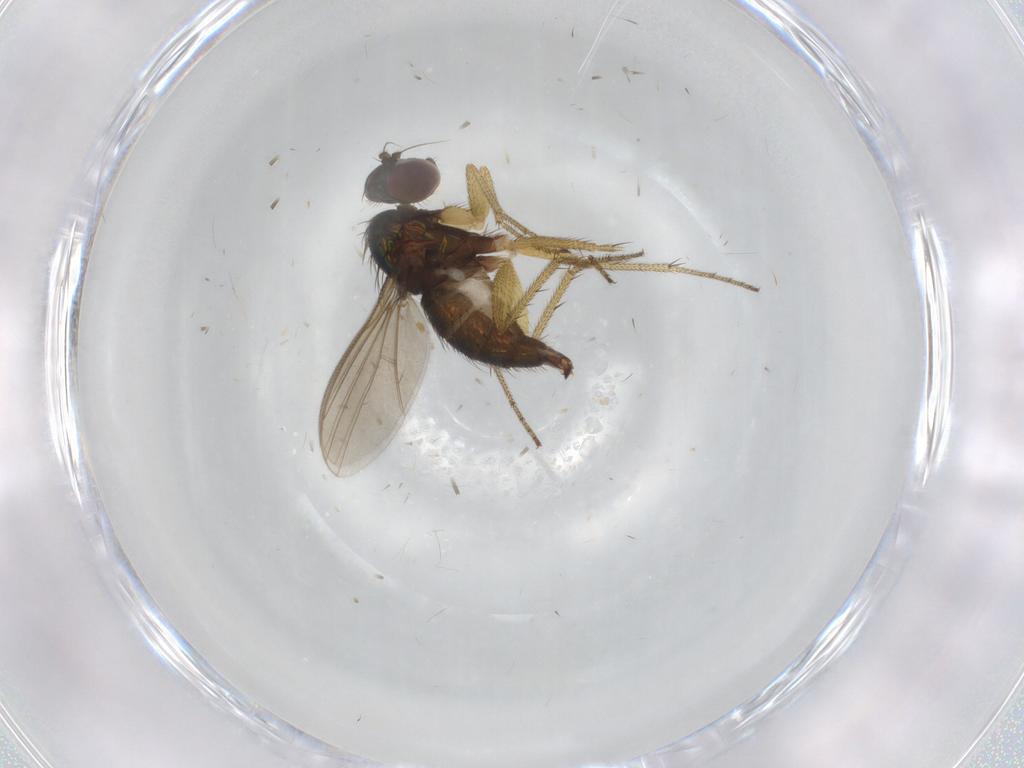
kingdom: Animalia
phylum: Arthropoda
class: Insecta
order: Diptera
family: Dolichopodidae
